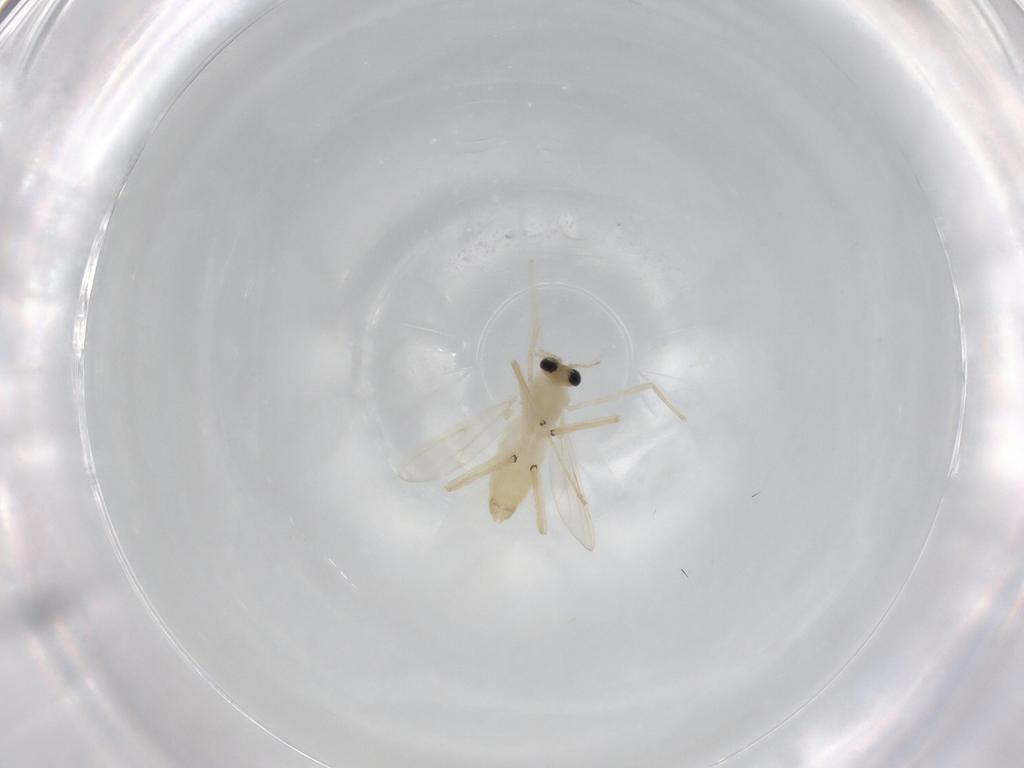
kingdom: Animalia
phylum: Arthropoda
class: Insecta
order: Diptera
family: Chironomidae
